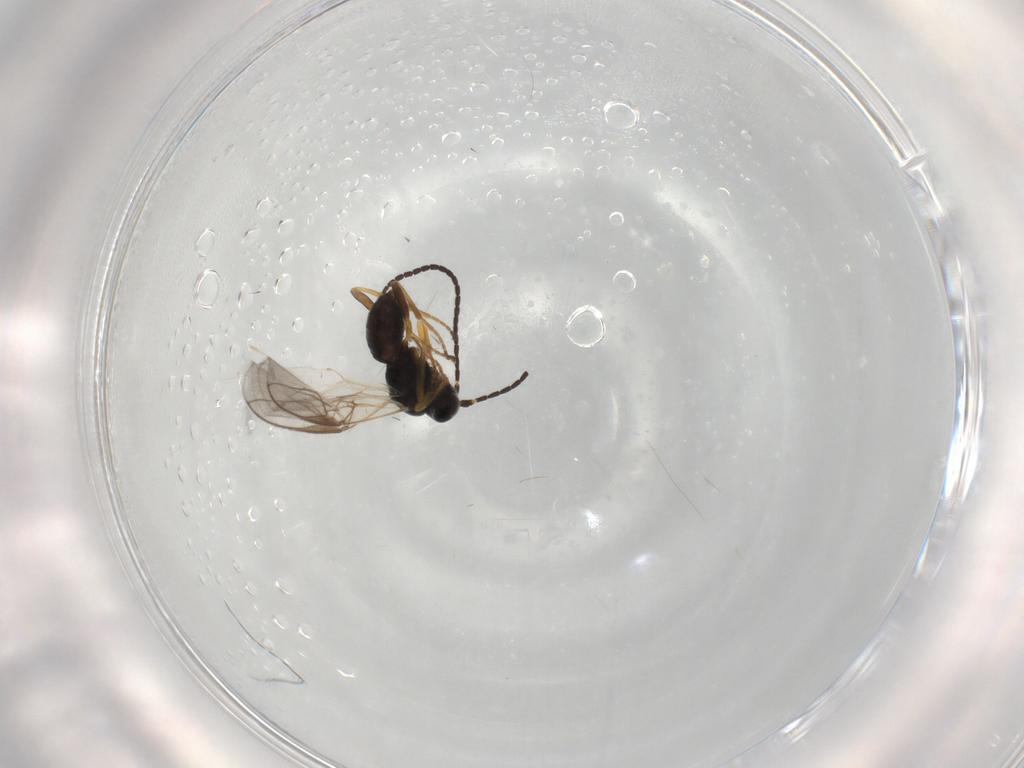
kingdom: Animalia
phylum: Arthropoda
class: Insecta
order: Hymenoptera
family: Braconidae
